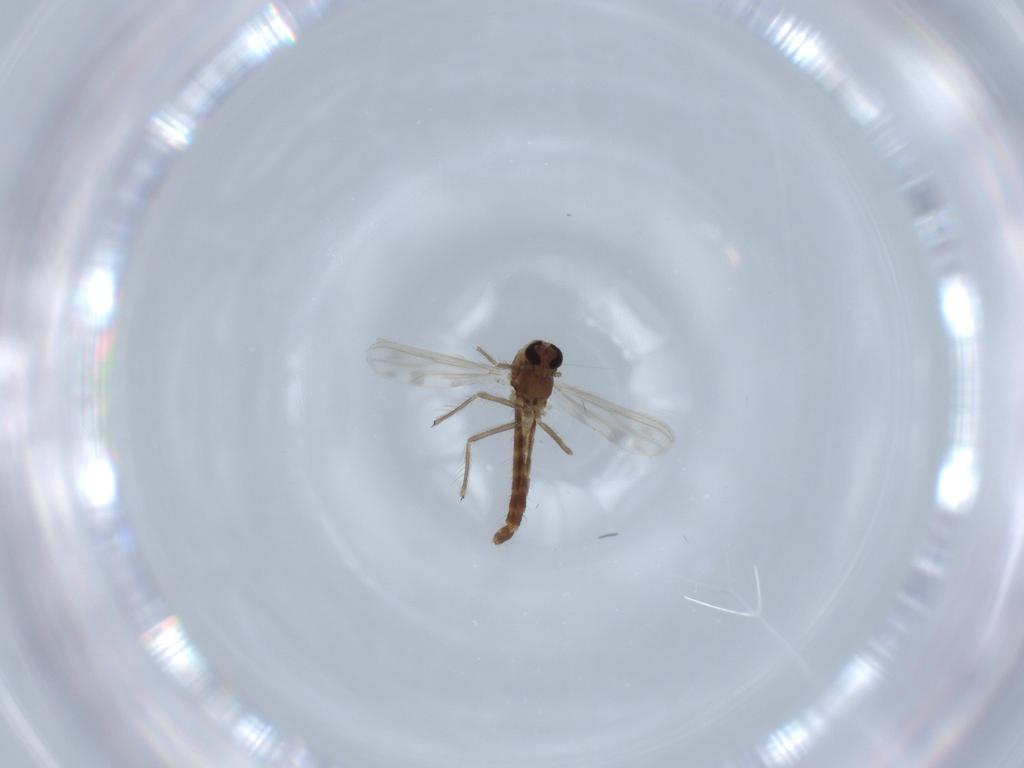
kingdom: Animalia
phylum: Arthropoda
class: Insecta
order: Diptera
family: Chironomidae
